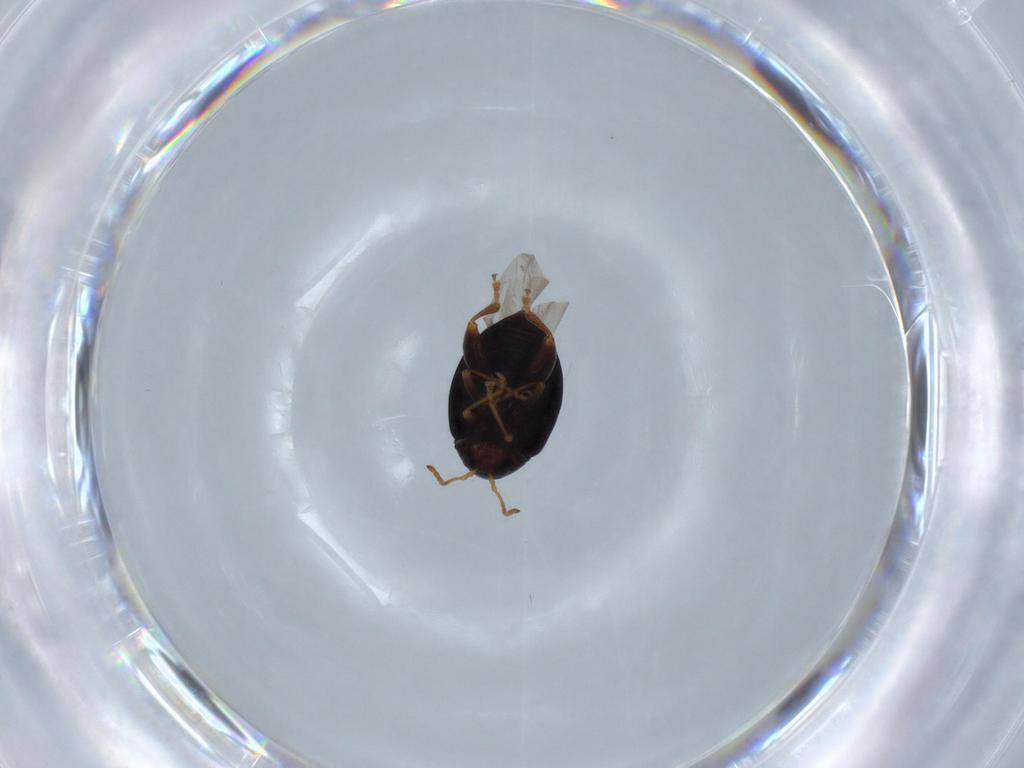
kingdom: Animalia
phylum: Arthropoda
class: Insecta
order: Coleoptera
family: Chrysomelidae
